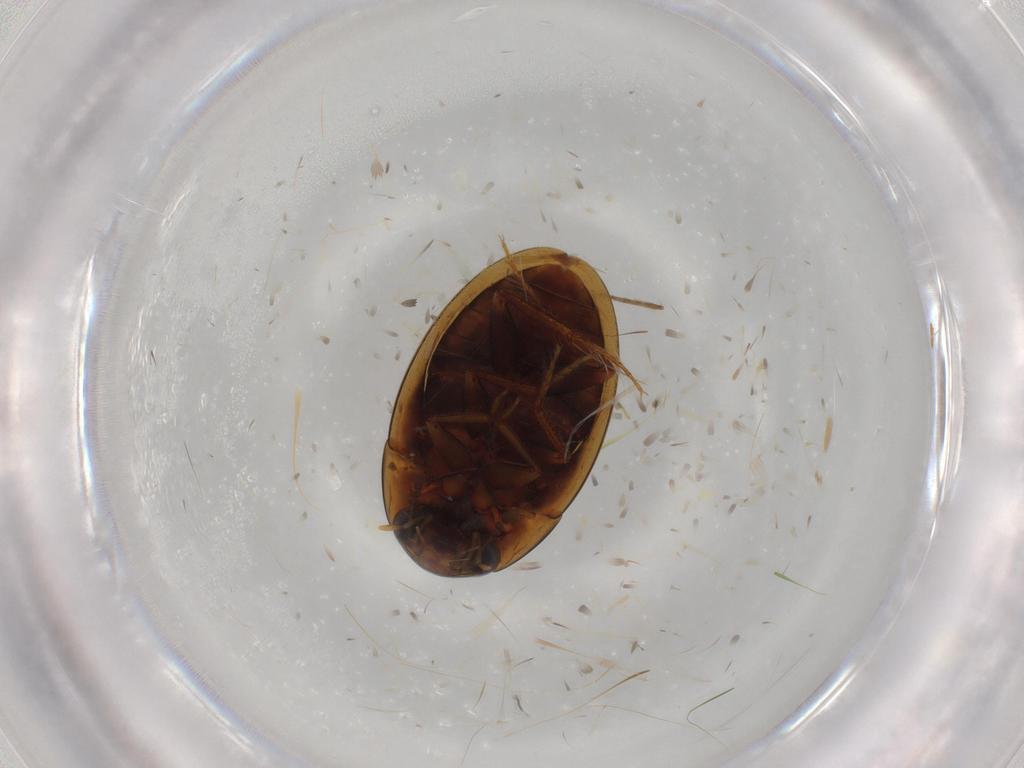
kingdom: Animalia
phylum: Arthropoda
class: Insecta
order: Coleoptera
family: Hydrophilidae
